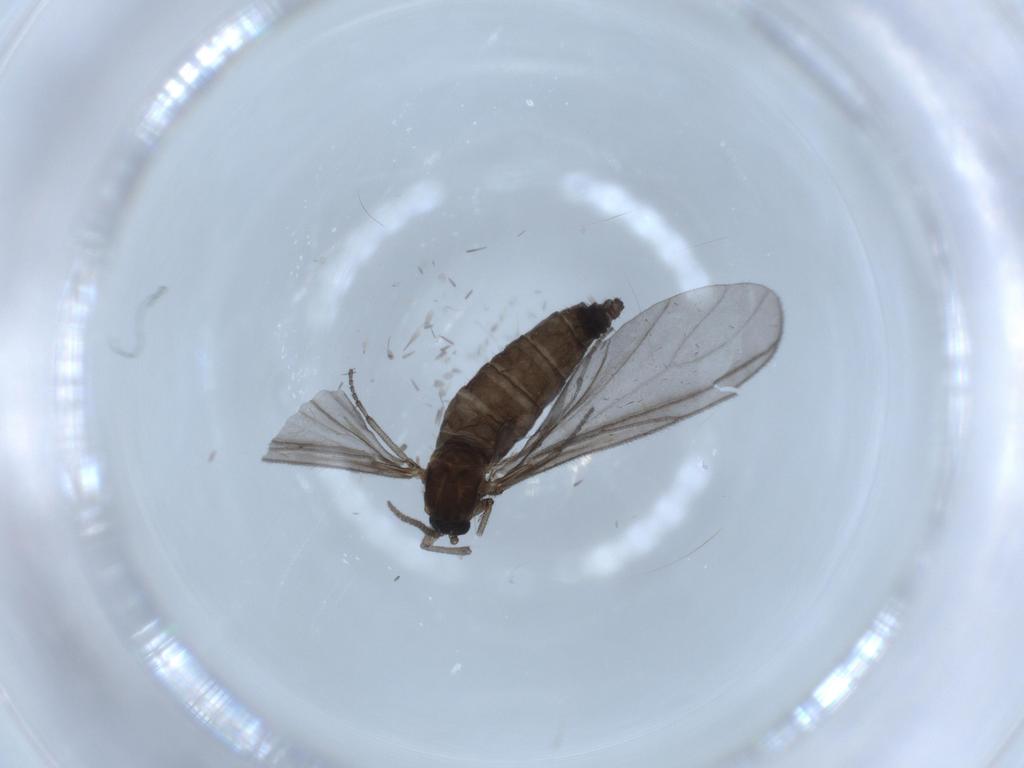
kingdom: Animalia
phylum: Arthropoda
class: Insecta
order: Diptera
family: Sciaridae
